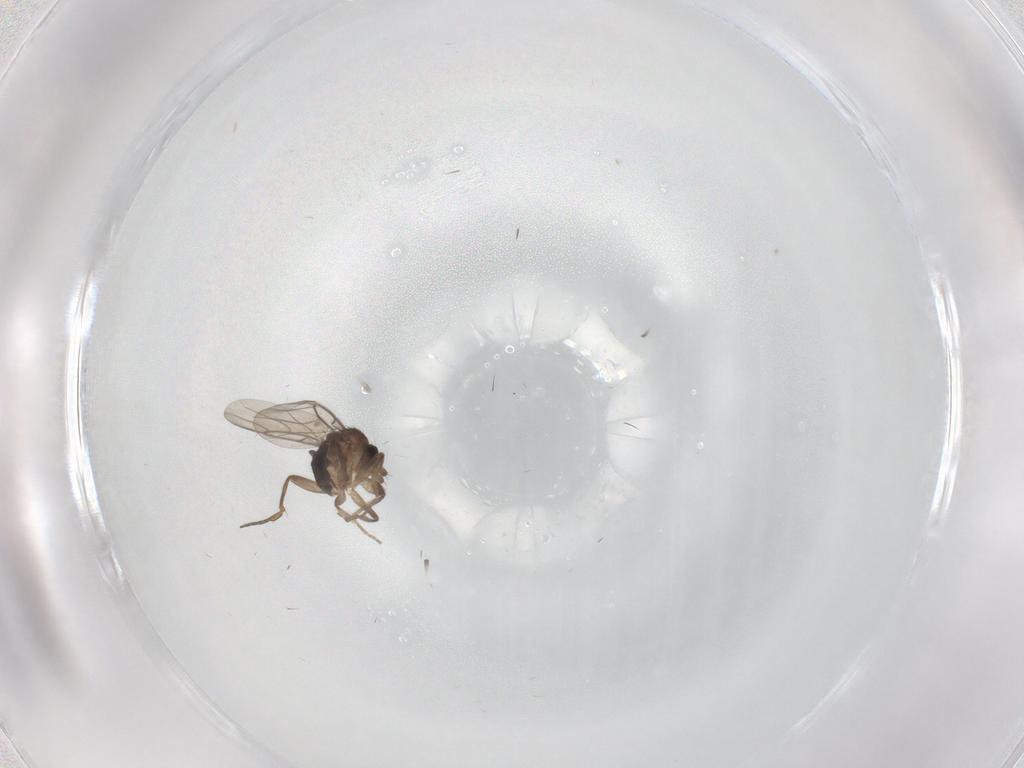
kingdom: Animalia
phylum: Arthropoda
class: Insecta
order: Diptera
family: Phoridae
